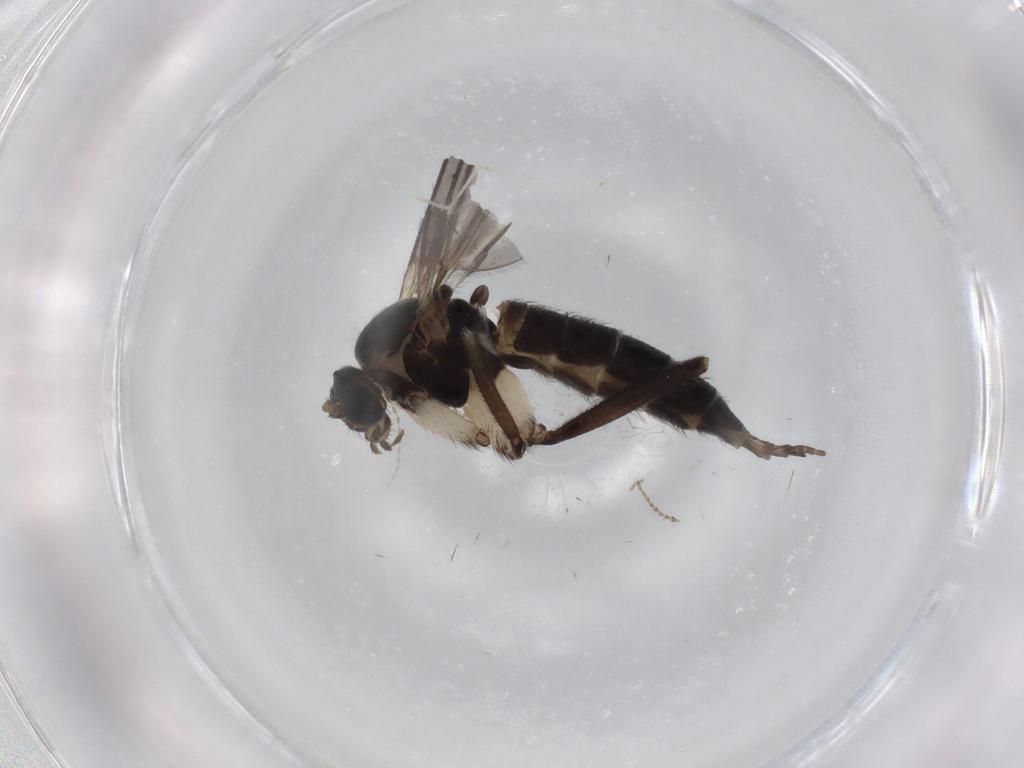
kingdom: Animalia
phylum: Arthropoda
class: Insecta
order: Diptera
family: Sciaridae
